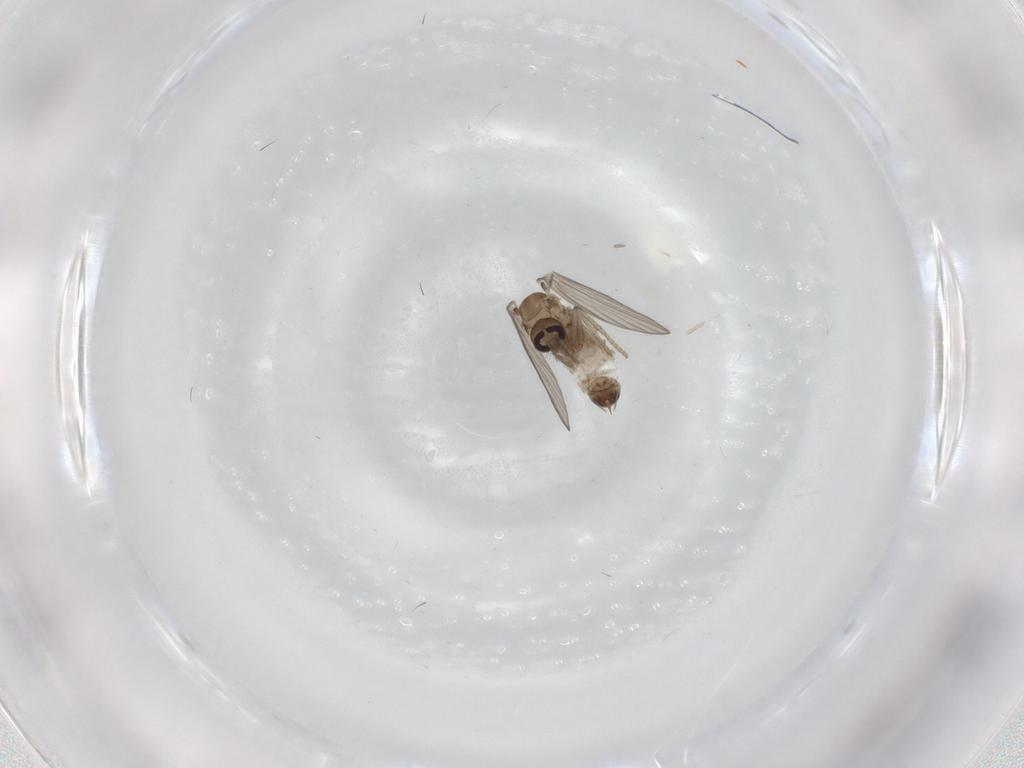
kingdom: Animalia
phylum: Arthropoda
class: Insecta
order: Diptera
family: Psychodidae
